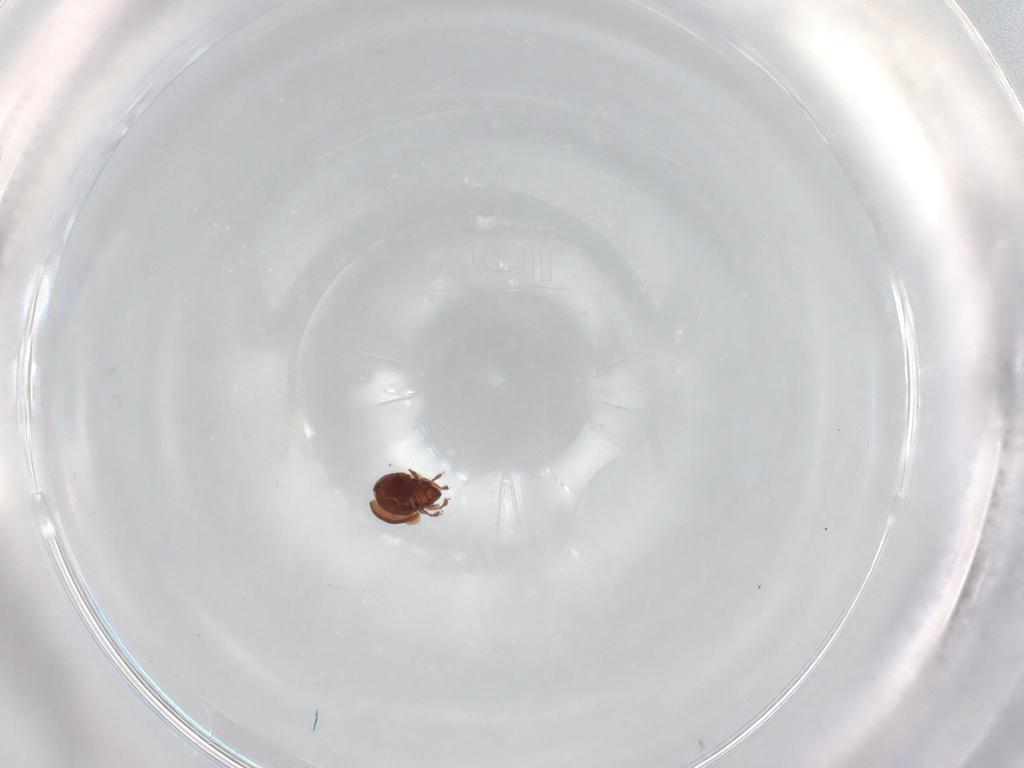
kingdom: Animalia
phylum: Arthropoda
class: Arachnida
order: Sarcoptiformes
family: Humerobatidae
